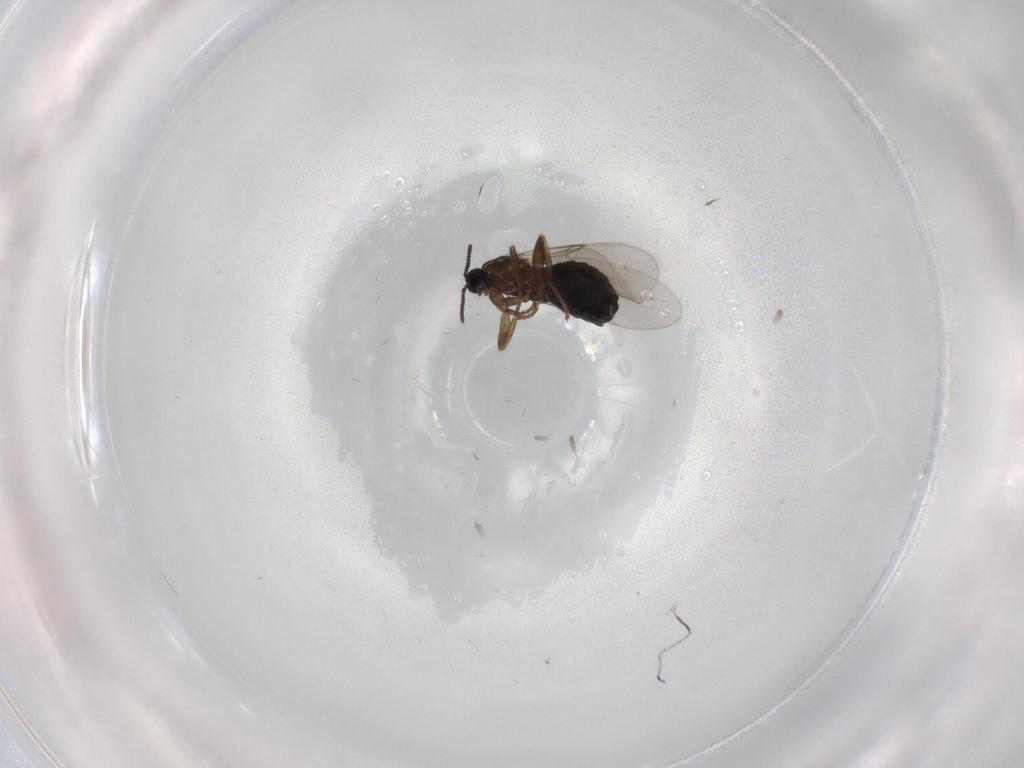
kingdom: Animalia
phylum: Arthropoda
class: Insecta
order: Diptera
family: Scatopsidae
